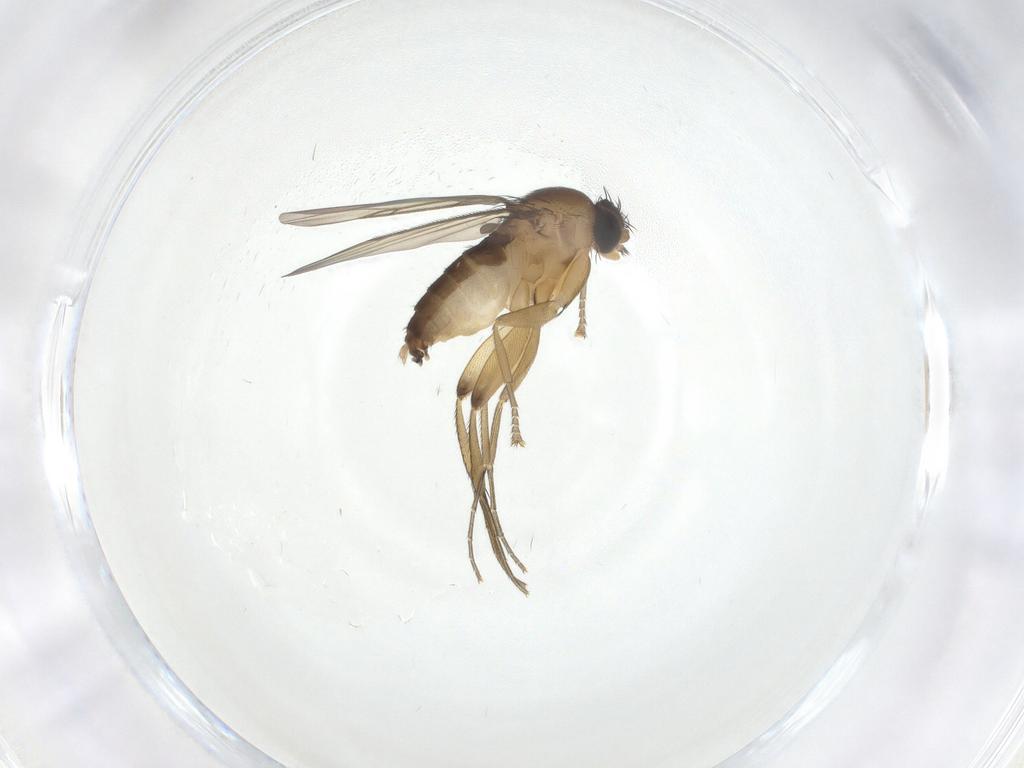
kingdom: Animalia
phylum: Arthropoda
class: Insecta
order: Diptera
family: Phoridae
